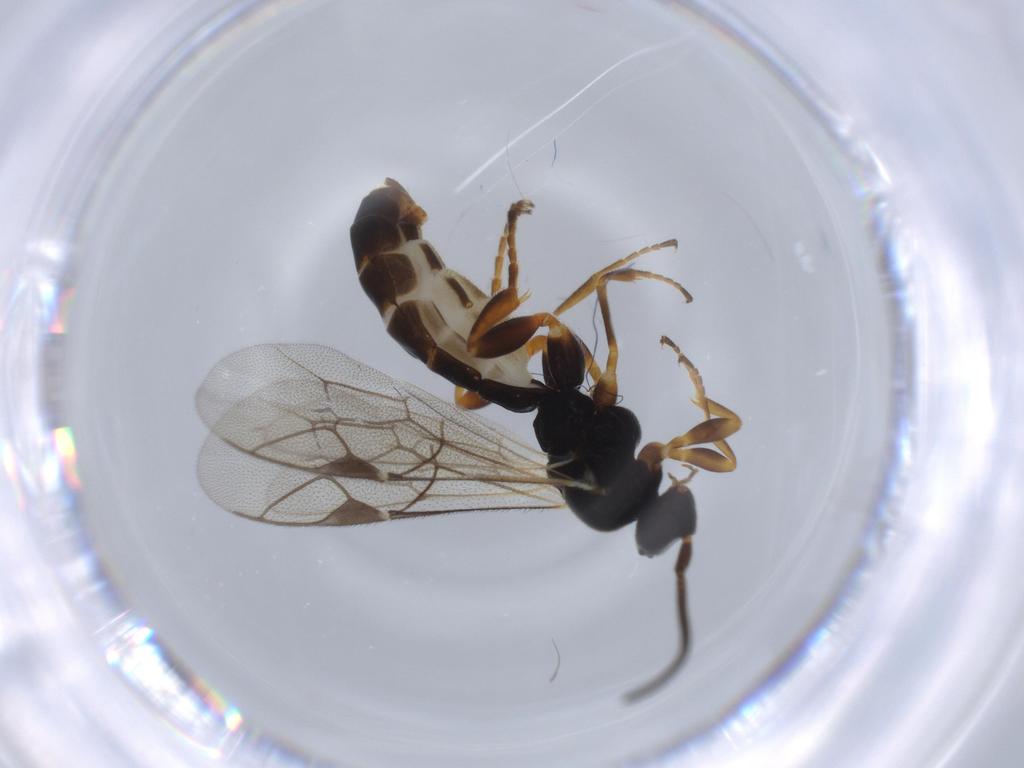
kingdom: Animalia
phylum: Arthropoda
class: Insecta
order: Hymenoptera
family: Ichneumonidae
